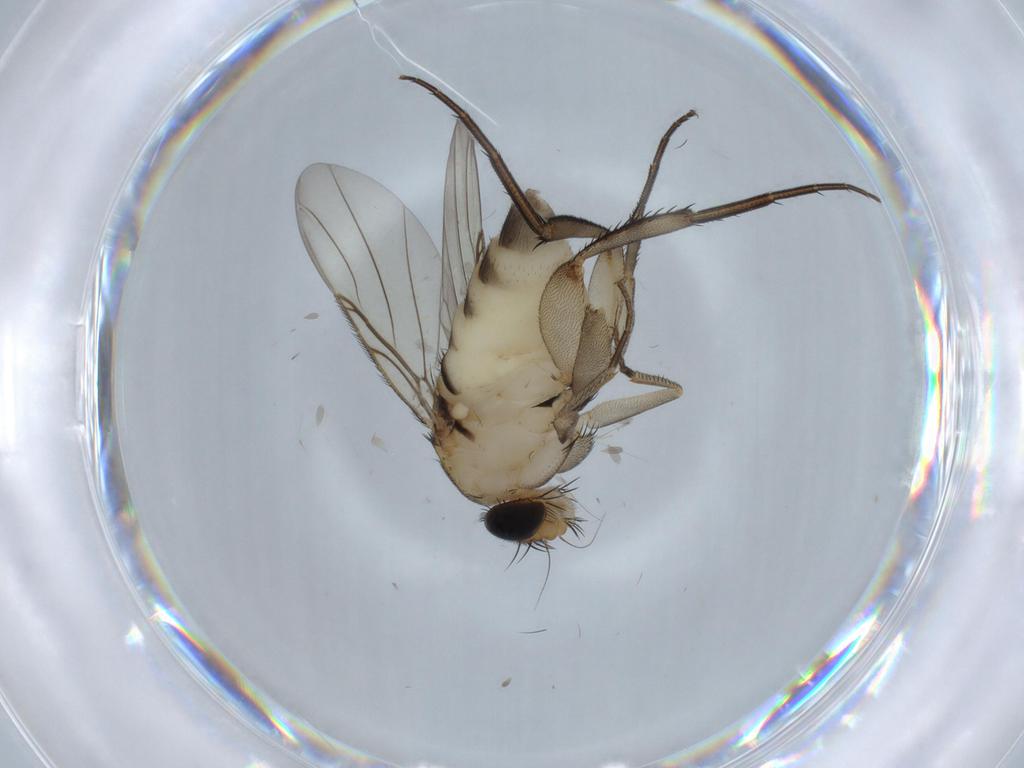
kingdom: Animalia
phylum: Arthropoda
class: Insecta
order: Diptera
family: Phoridae
